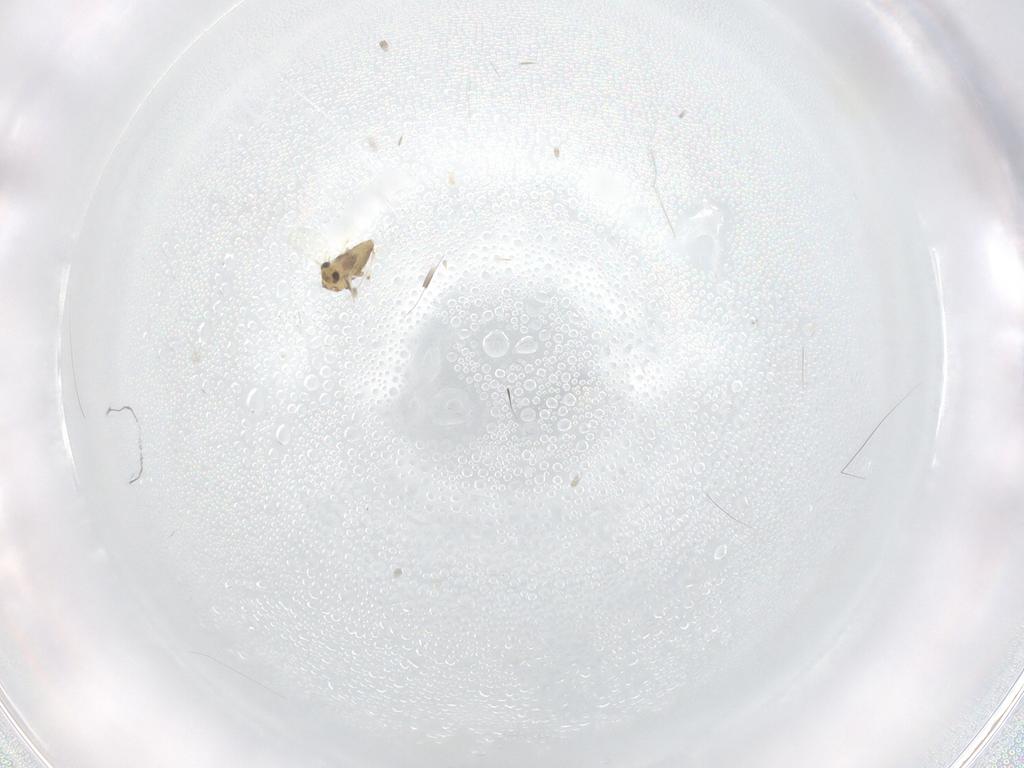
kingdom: Animalia
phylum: Arthropoda
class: Insecta
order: Diptera
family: Chironomidae
